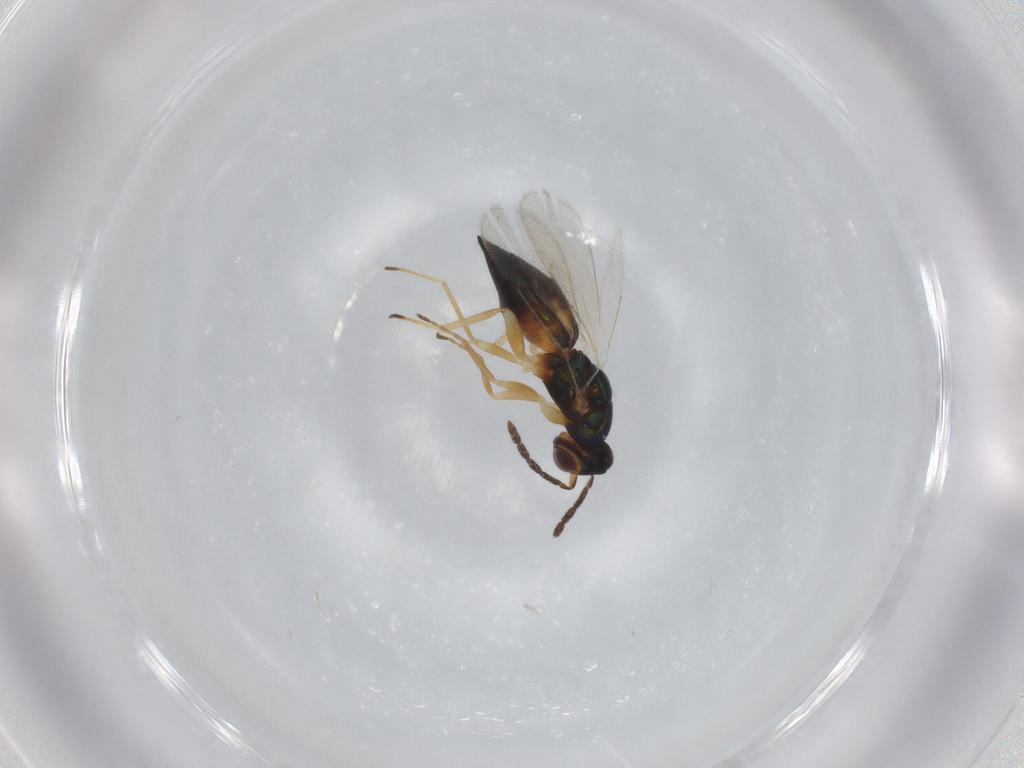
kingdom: Animalia
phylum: Arthropoda
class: Insecta
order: Hymenoptera
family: Eulophidae
